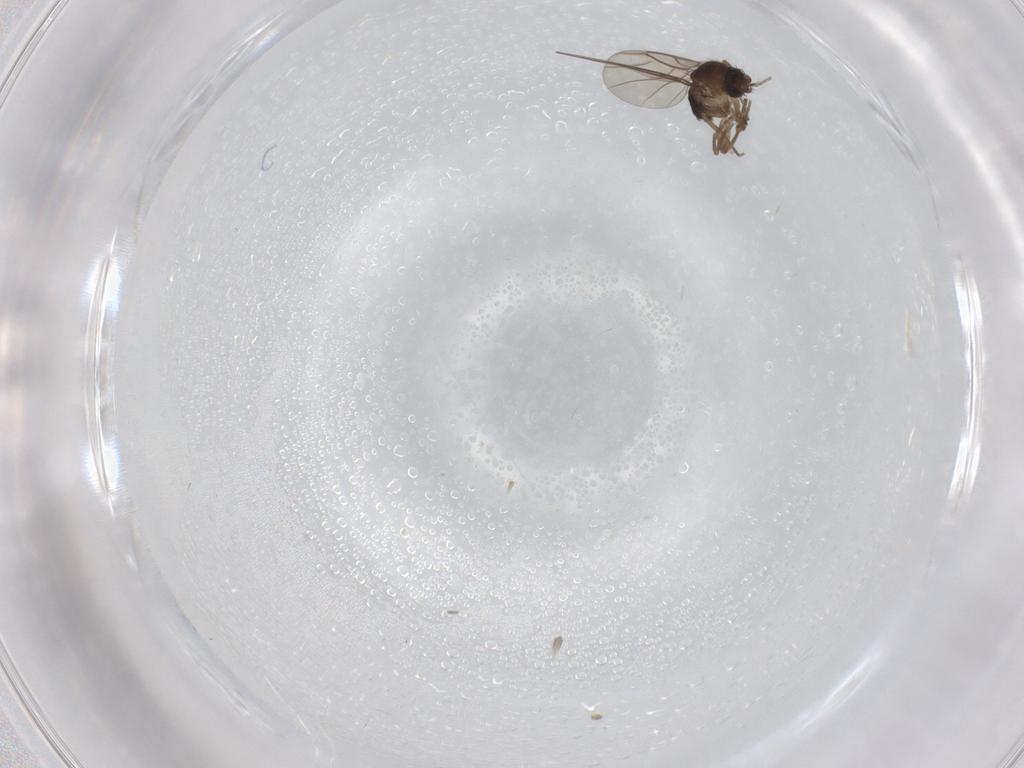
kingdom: Animalia
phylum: Arthropoda
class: Insecta
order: Diptera
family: Phoridae
